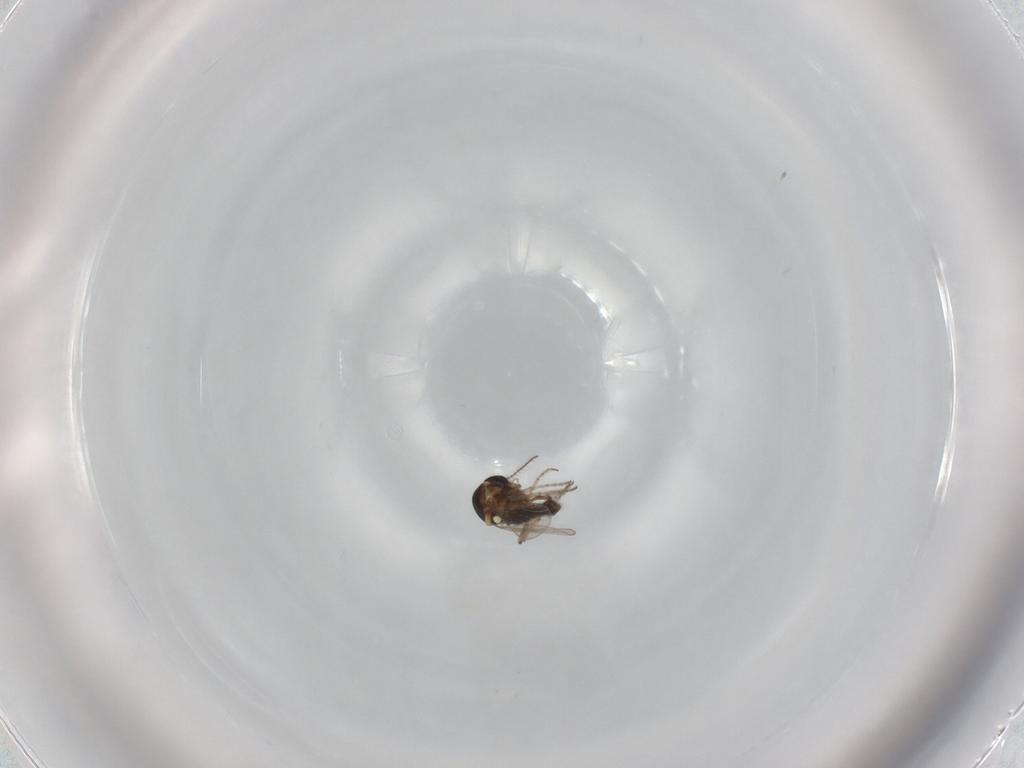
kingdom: Animalia
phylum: Arthropoda
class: Insecta
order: Diptera
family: Ceratopogonidae
